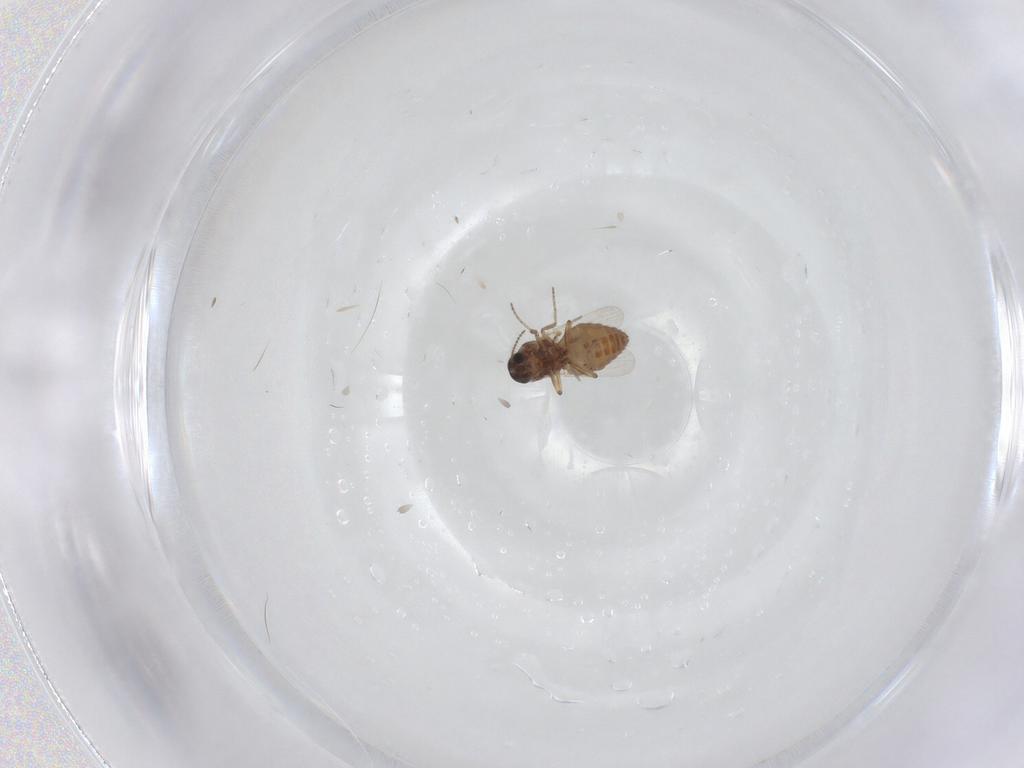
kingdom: Animalia
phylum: Arthropoda
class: Insecta
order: Diptera
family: Ceratopogonidae
